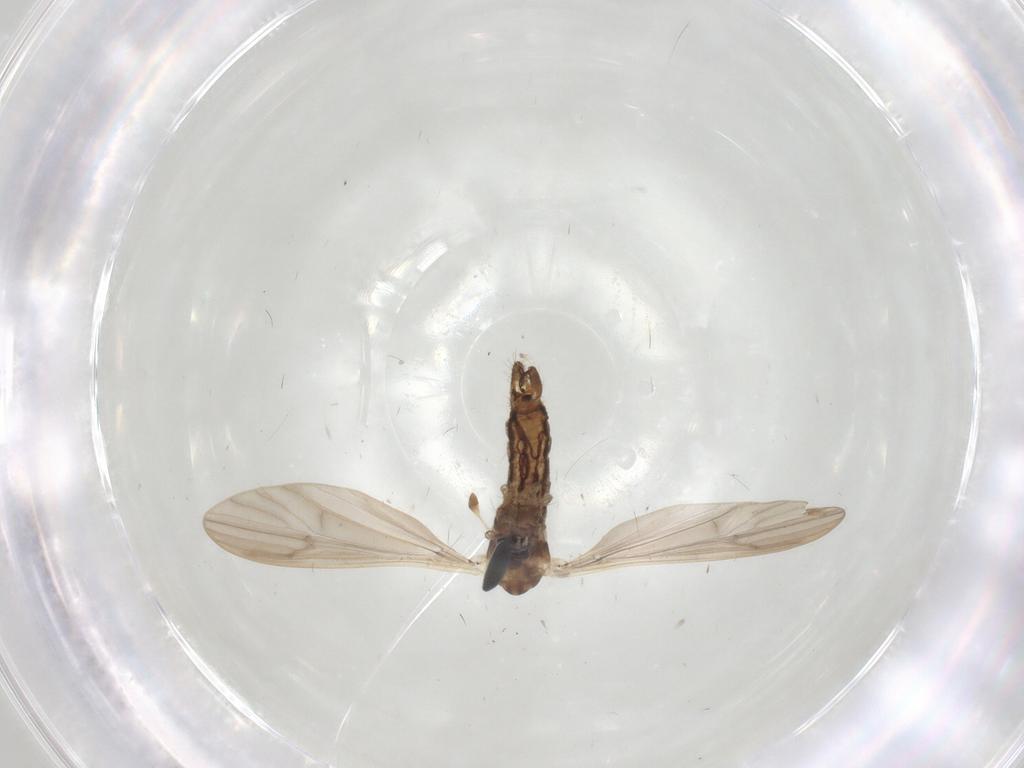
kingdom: Animalia
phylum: Arthropoda
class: Insecta
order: Diptera
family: Limoniidae
